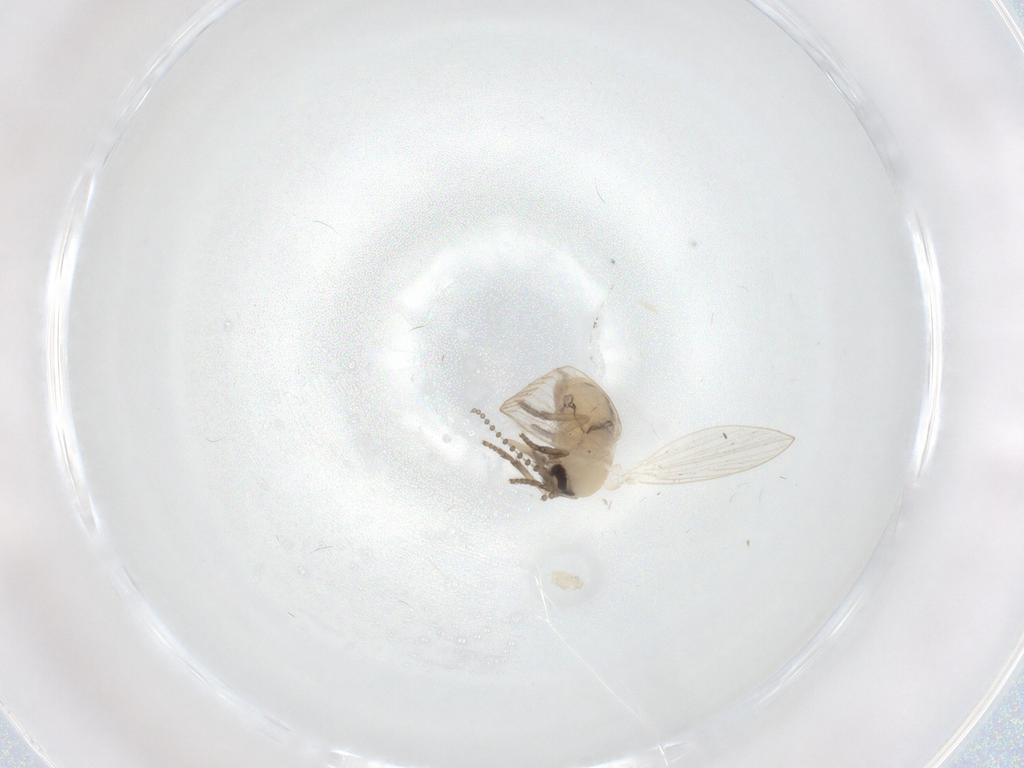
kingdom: Animalia
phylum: Arthropoda
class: Insecta
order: Diptera
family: Psychodidae
